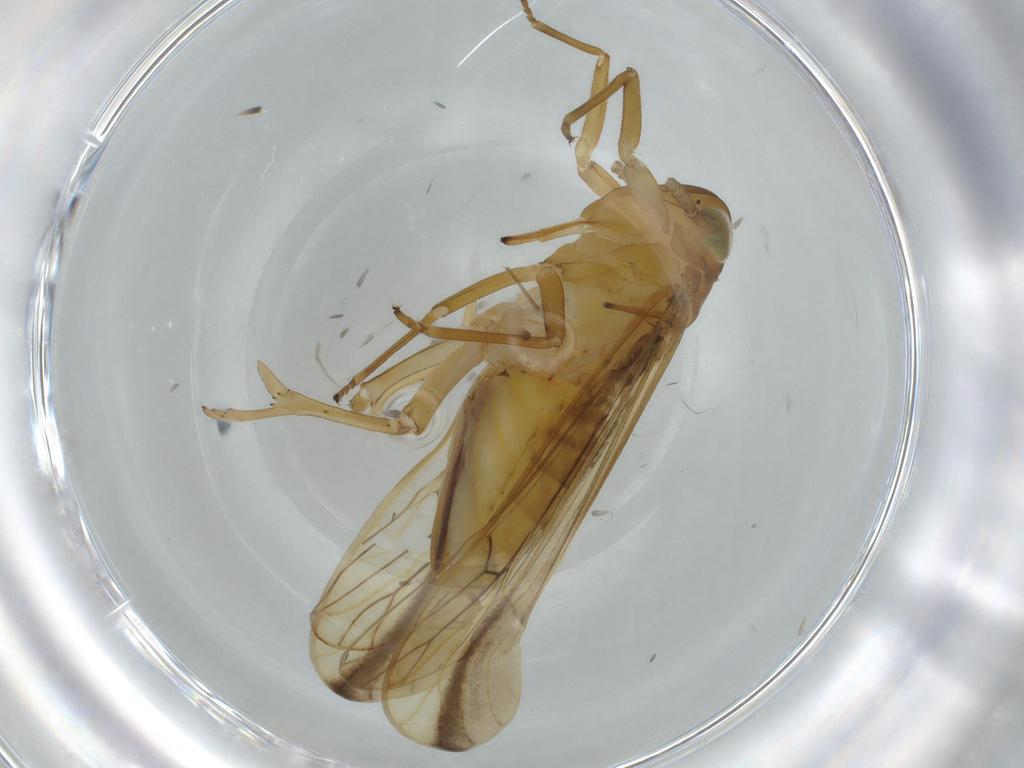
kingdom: Animalia
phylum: Arthropoda
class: Insecta
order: Hemiptera
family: Delphacidae
